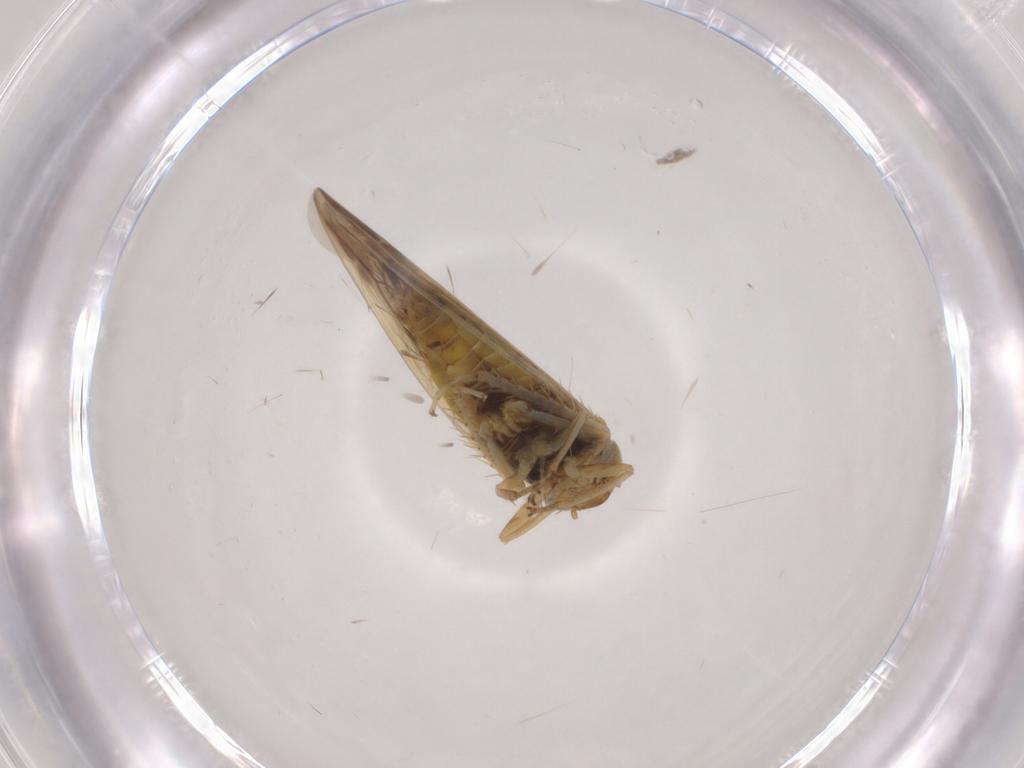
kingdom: Animalia
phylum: Arthropoda
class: Insecta
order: Hemiptera
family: Cicadellidae
